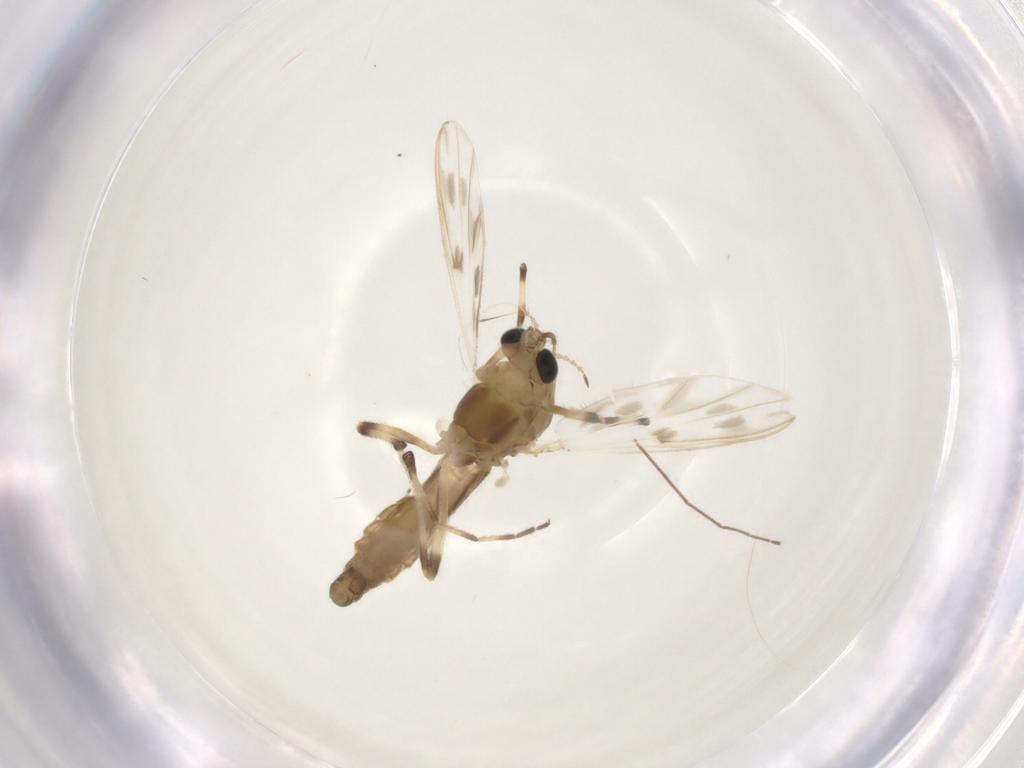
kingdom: Animalia
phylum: Arthropoda
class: Insecta
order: Diptera
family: Chironomidae
